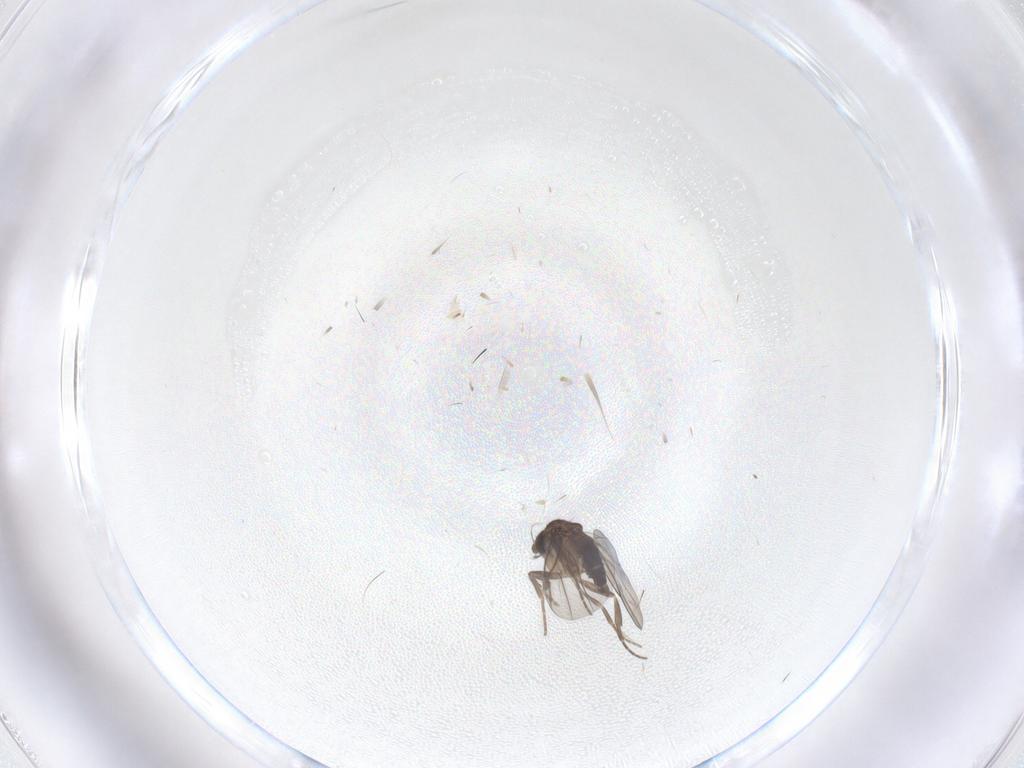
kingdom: Animalia
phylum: Arthropoda
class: Insecta
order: Diptera
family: Phoridae
